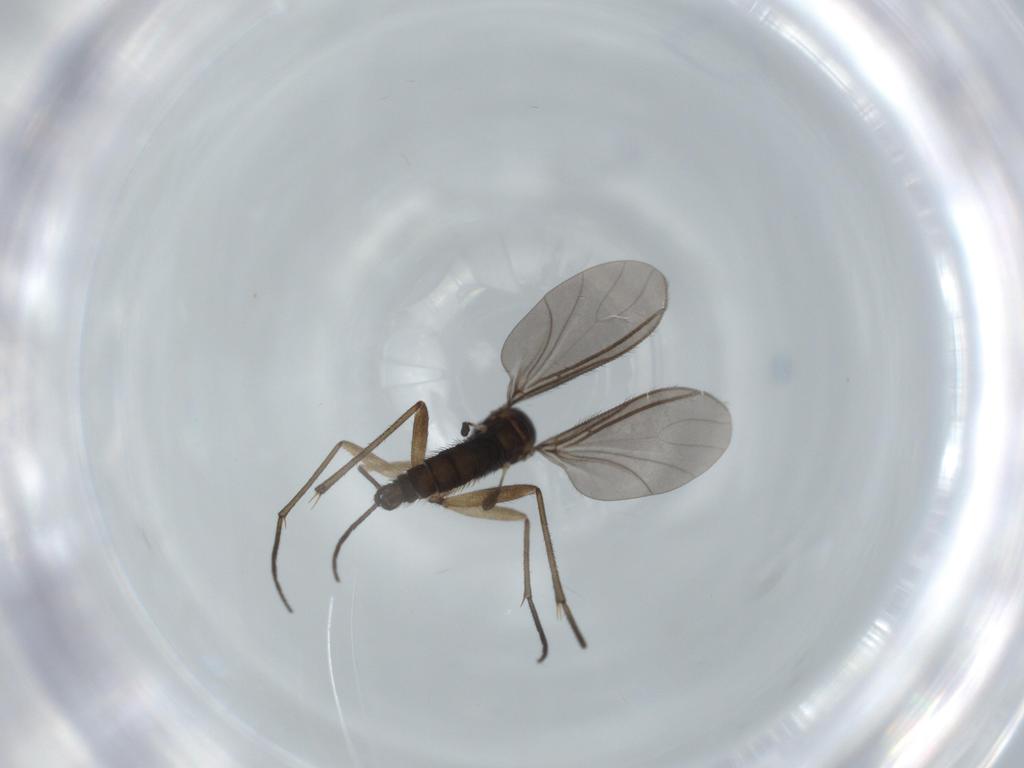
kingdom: Animalia
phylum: Arthropoda
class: Insecta
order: Diptera
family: Sciaridae
